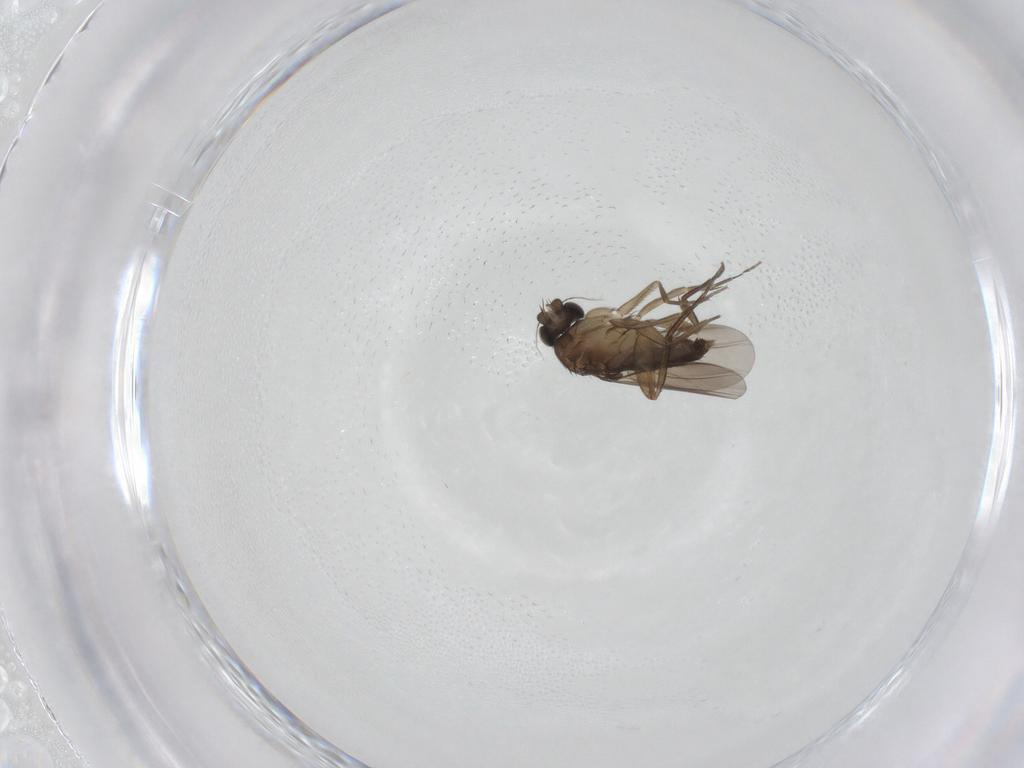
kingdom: Animalia
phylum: Arthropoda
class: Insecta
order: Diptera
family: Phoridae
